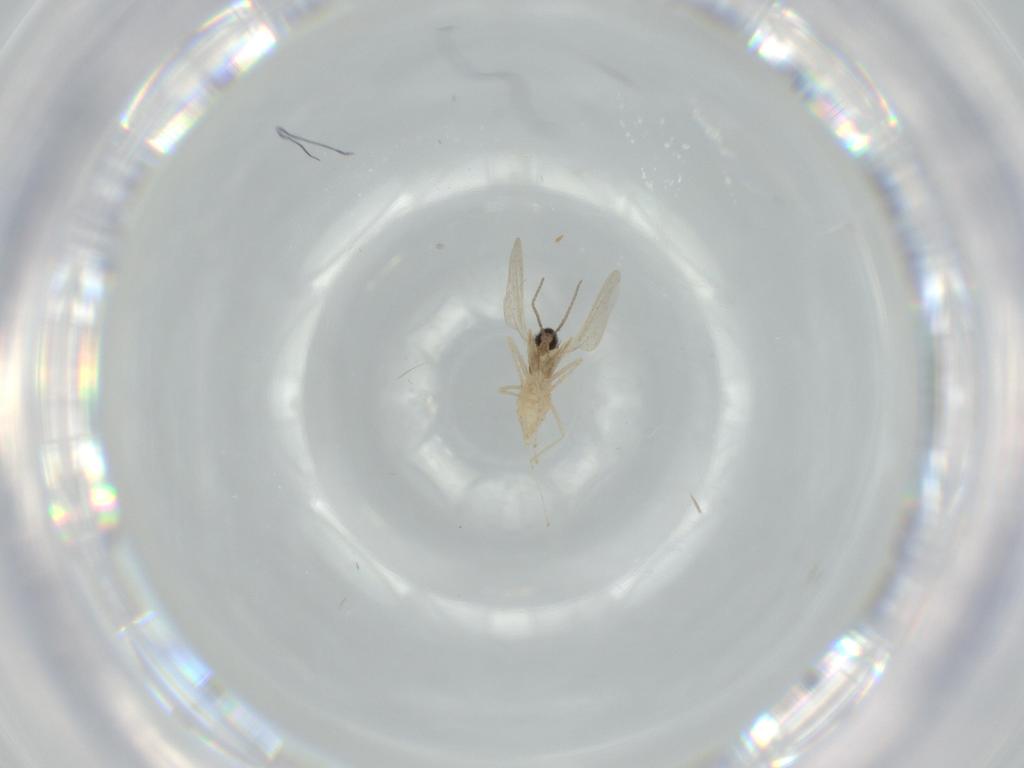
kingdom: Animalia
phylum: Arthropoda
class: Insecta
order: Diptera
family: Cecidomyiidae
